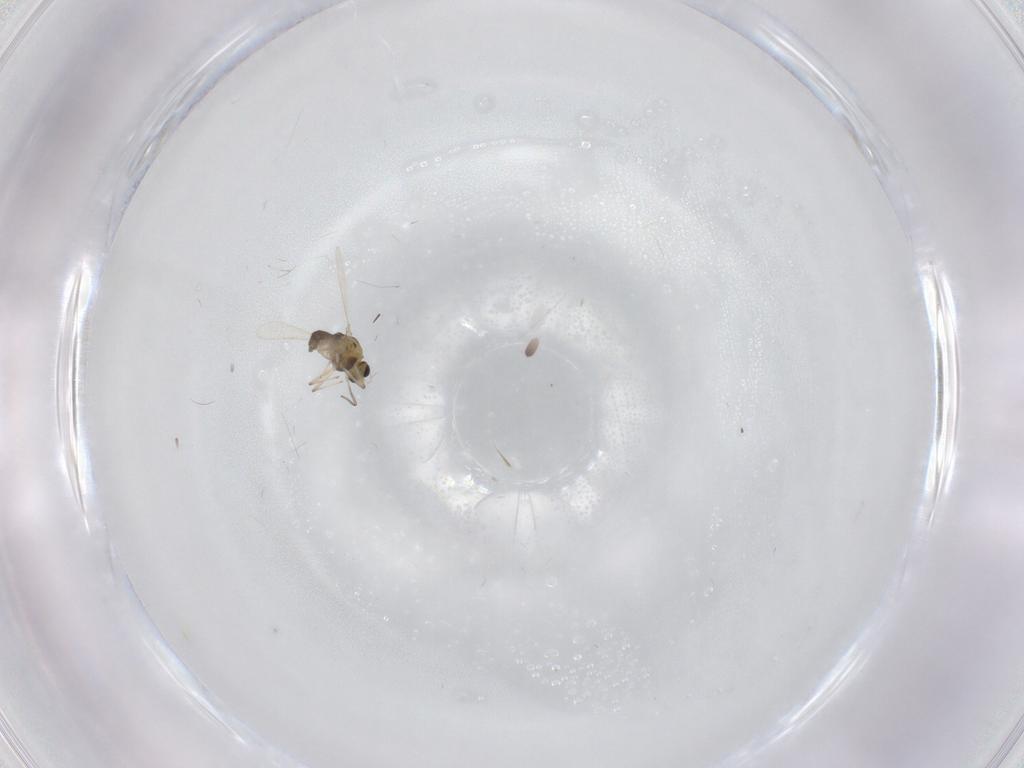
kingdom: Animalia
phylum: Arthropoda
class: Insecta
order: Diptera
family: Chironomidae
